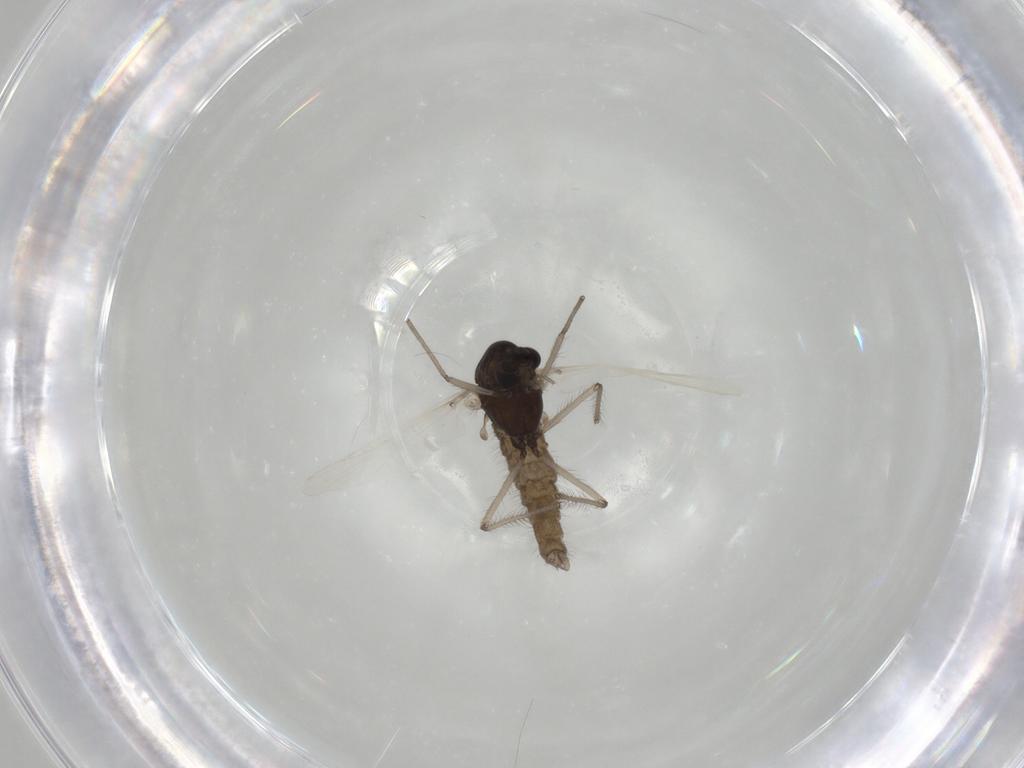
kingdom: Animalia
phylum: Arthropoda
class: Insecta
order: Diptera
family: Chironomidae
